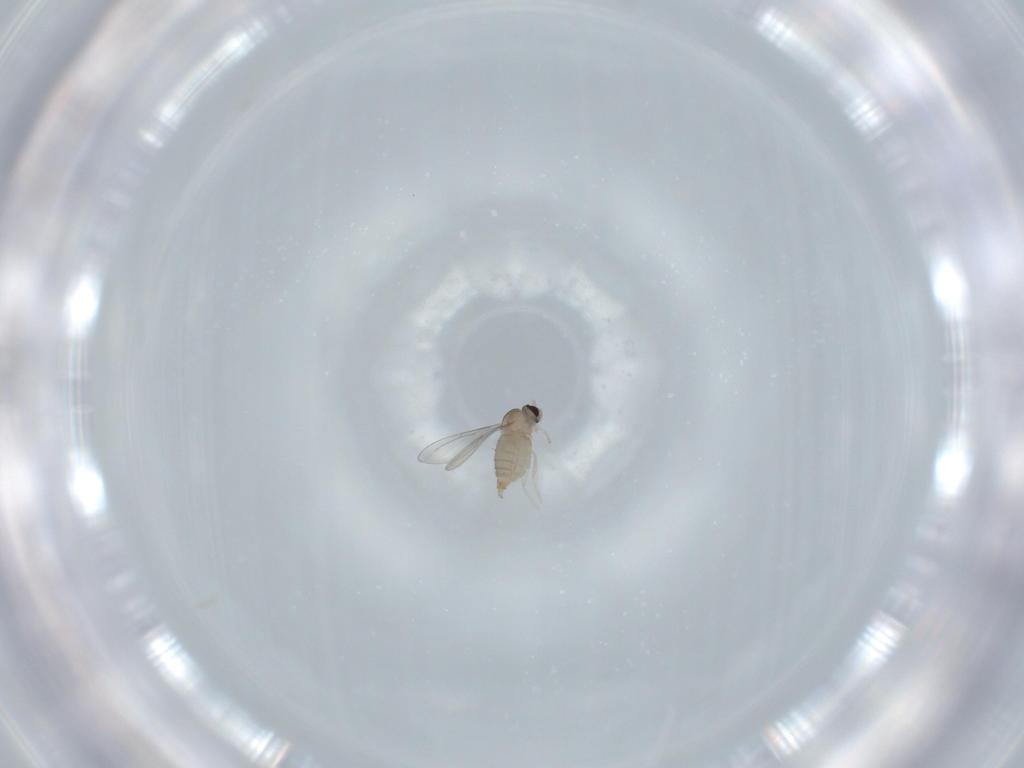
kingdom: Animalia
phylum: Arthropoda
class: Insecta
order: Diptera
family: Cecidomyiidae
